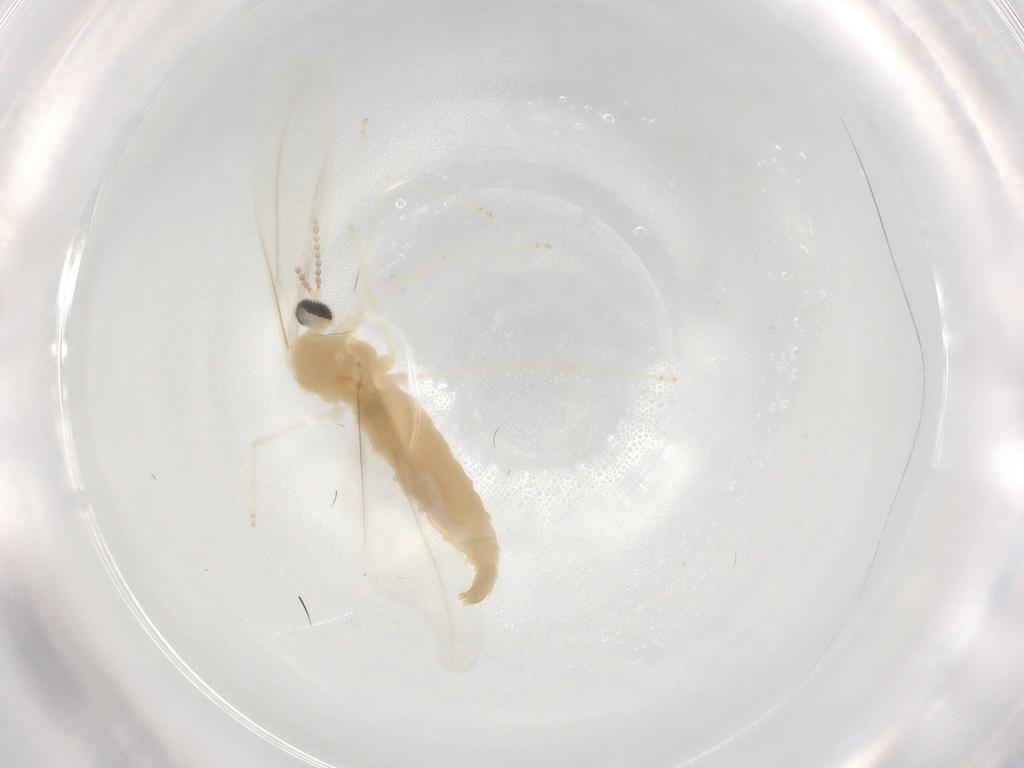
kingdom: Animalia
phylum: Arthropoda
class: Insecta
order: Diptera
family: Cecidomyiidae
